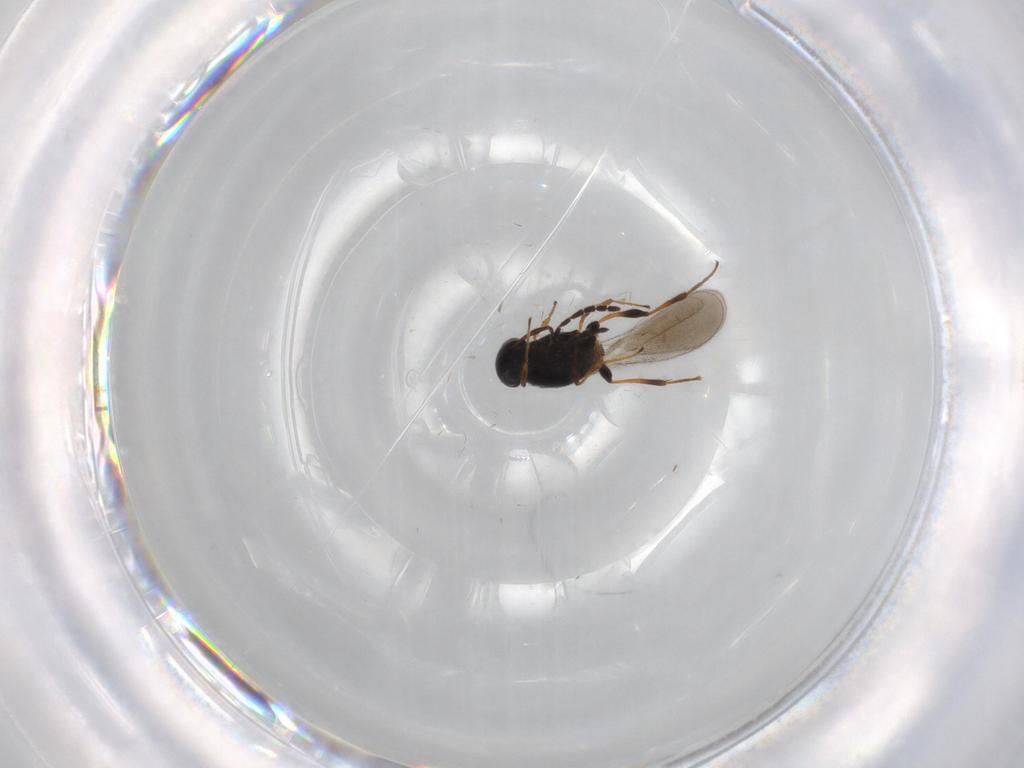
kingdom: Animalia
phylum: Arthropoda
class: Insecta
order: Hymenoptera
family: Platygastridae
